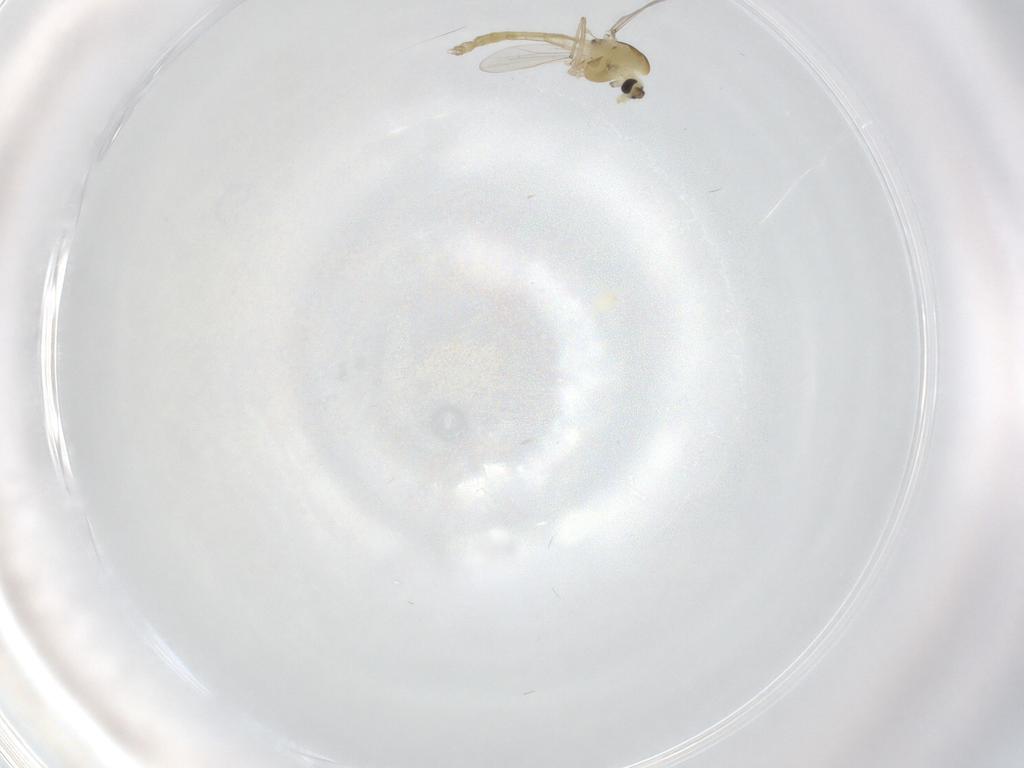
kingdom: Animalia
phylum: Arthropoda
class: Insecta
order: Diptera
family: Chironomidae
